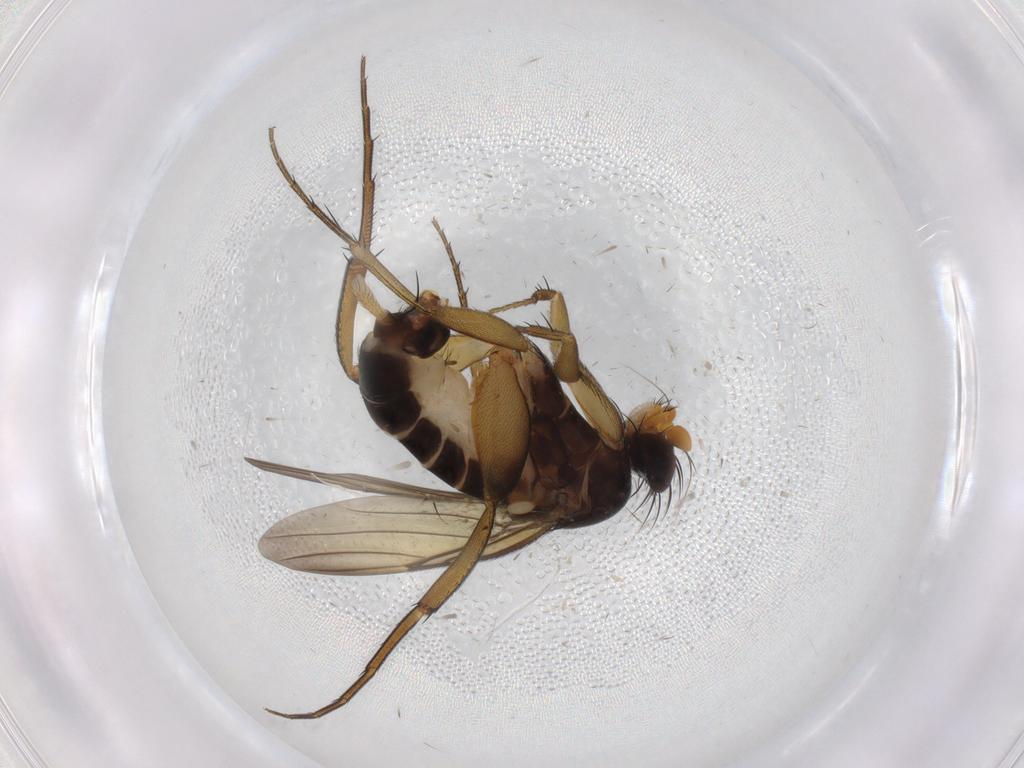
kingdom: Animalia
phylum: Arthropoda
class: Insecta
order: Diptera
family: Phoridae
